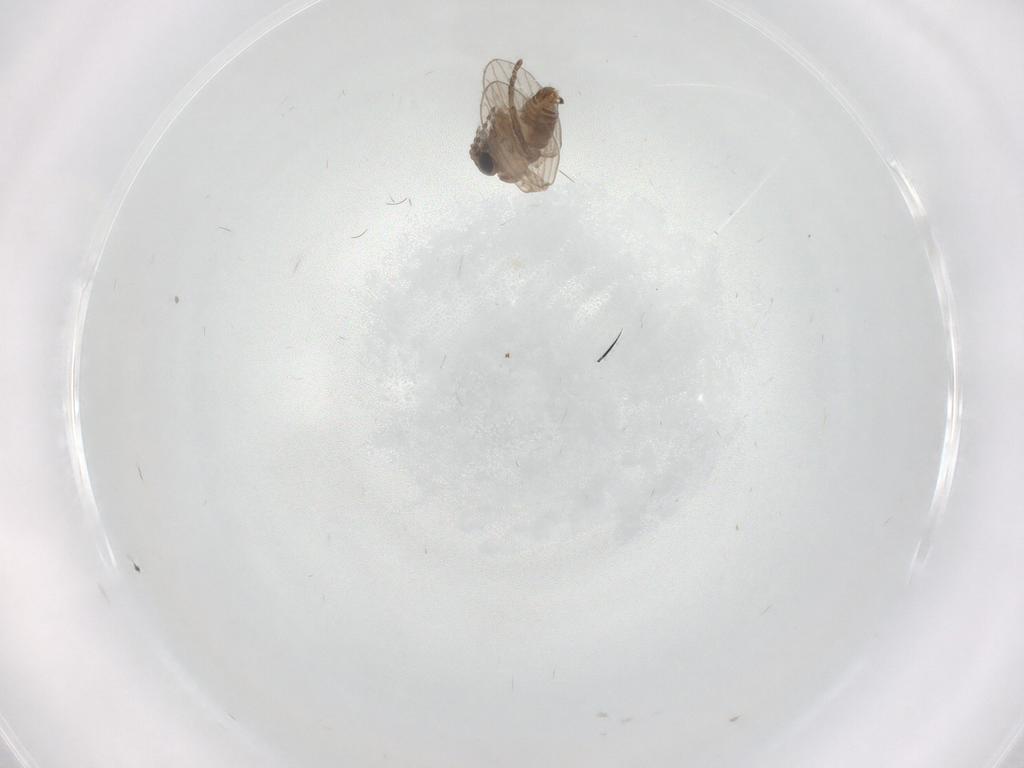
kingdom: Animalia
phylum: Arthropoda
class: Insecta
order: Diptera
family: Psychodidae
